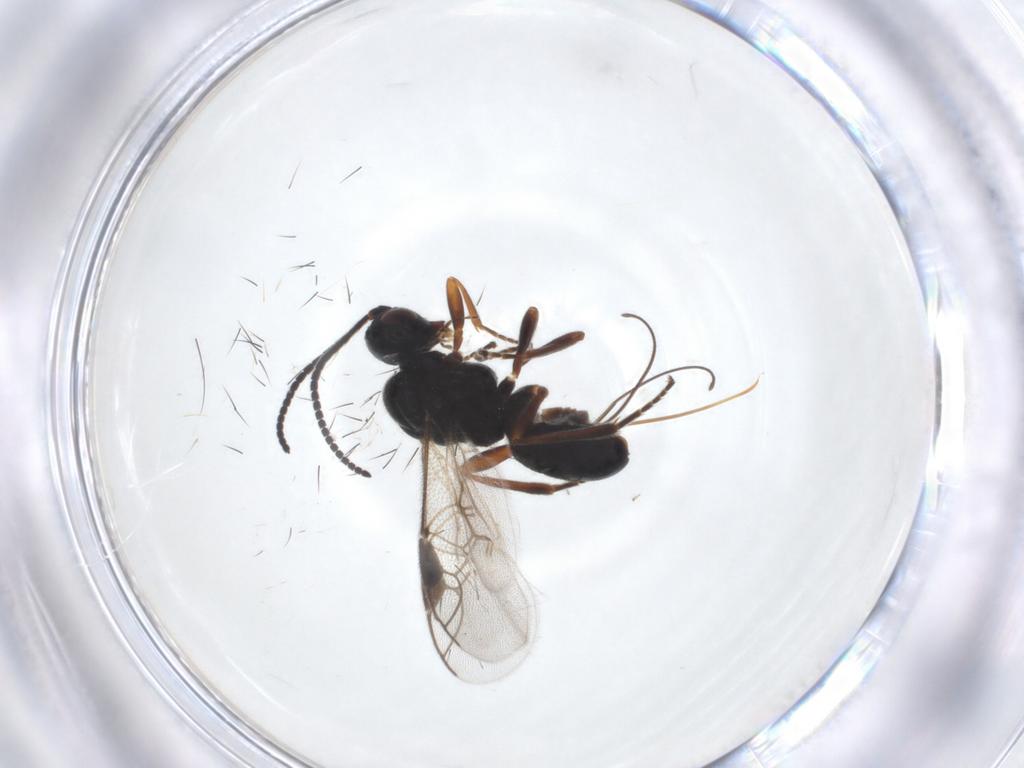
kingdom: Animalia
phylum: Arthropoda
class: Insecta
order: Hymenoptera
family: Braconidae
